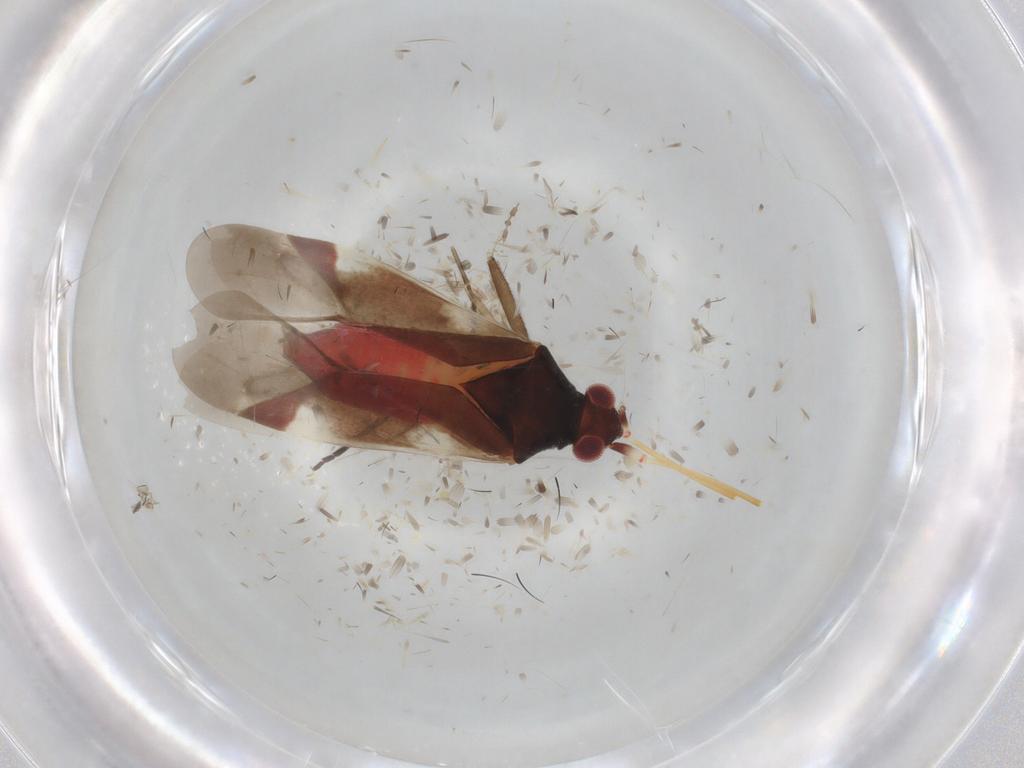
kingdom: Animalia
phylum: Arthropoda
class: Insecta
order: Hemiptera
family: Miridae
